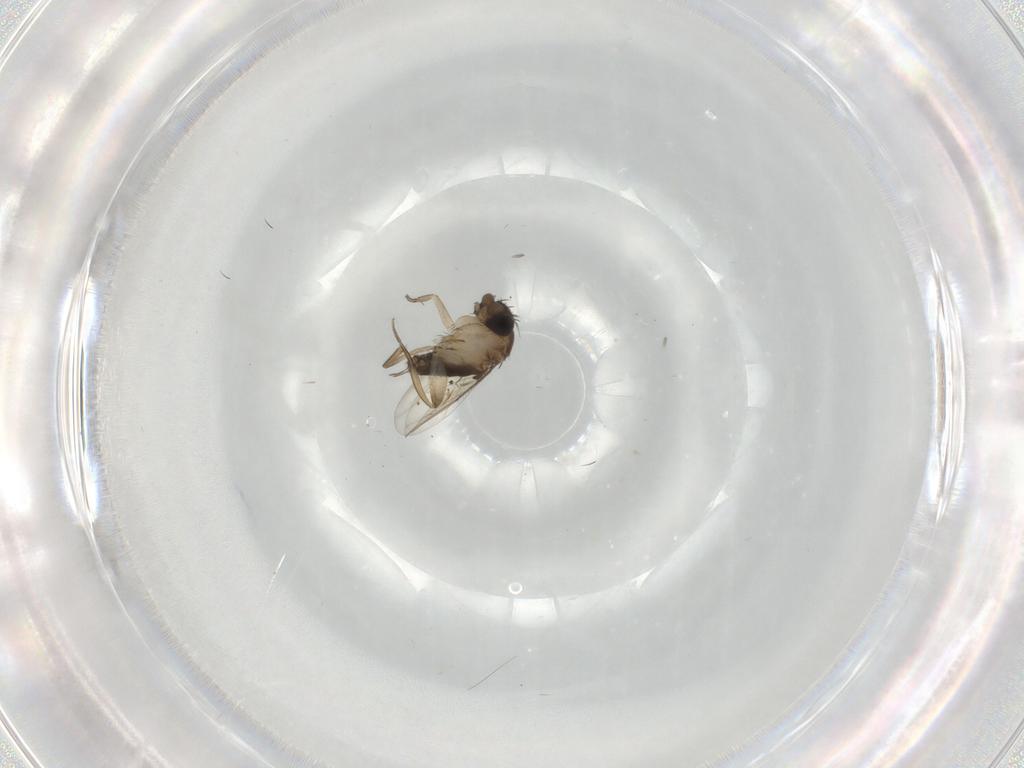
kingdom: Animalia
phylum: Arthropoda
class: Insecta
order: Diptera
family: Phoridae
